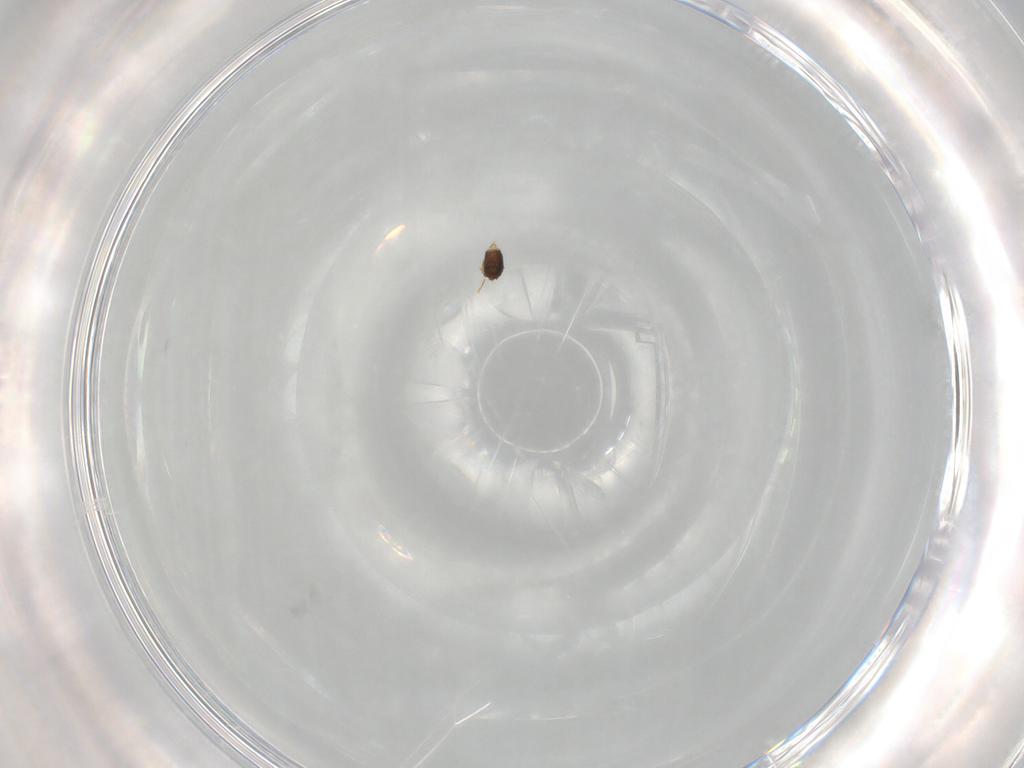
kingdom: Animalia
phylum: Arthropoda
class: Insecta
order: Hymenoptera
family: Mymaridae
